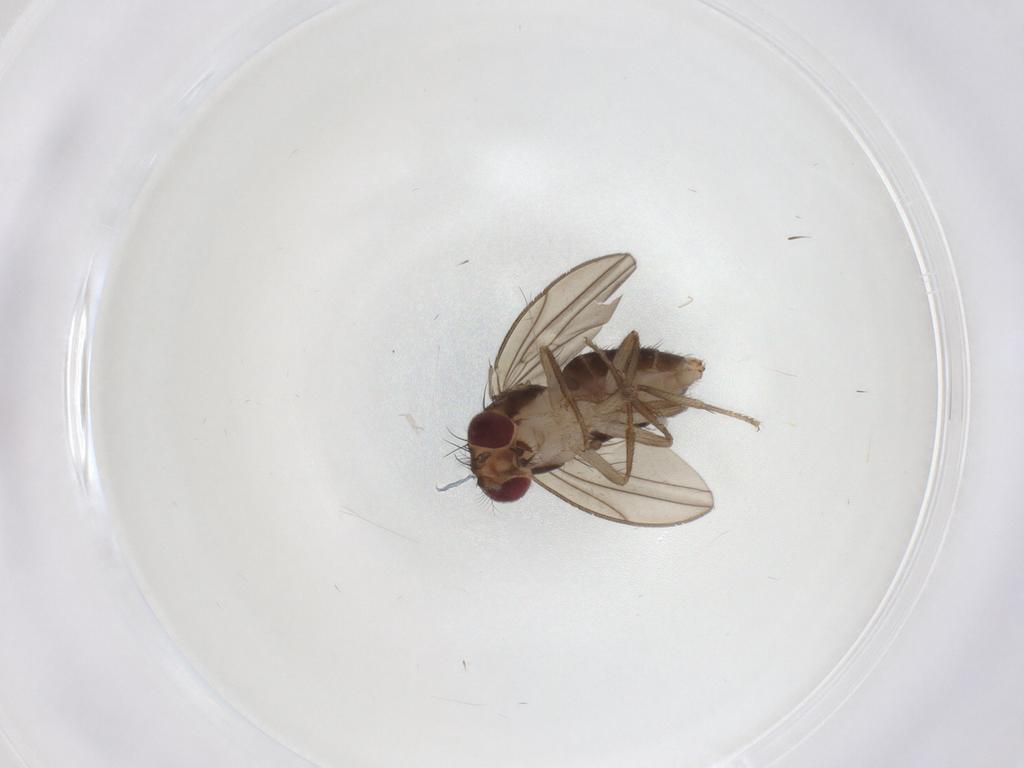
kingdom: Animalia
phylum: Arthropoda
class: Insecta
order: Diptera
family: Drosophilidae
